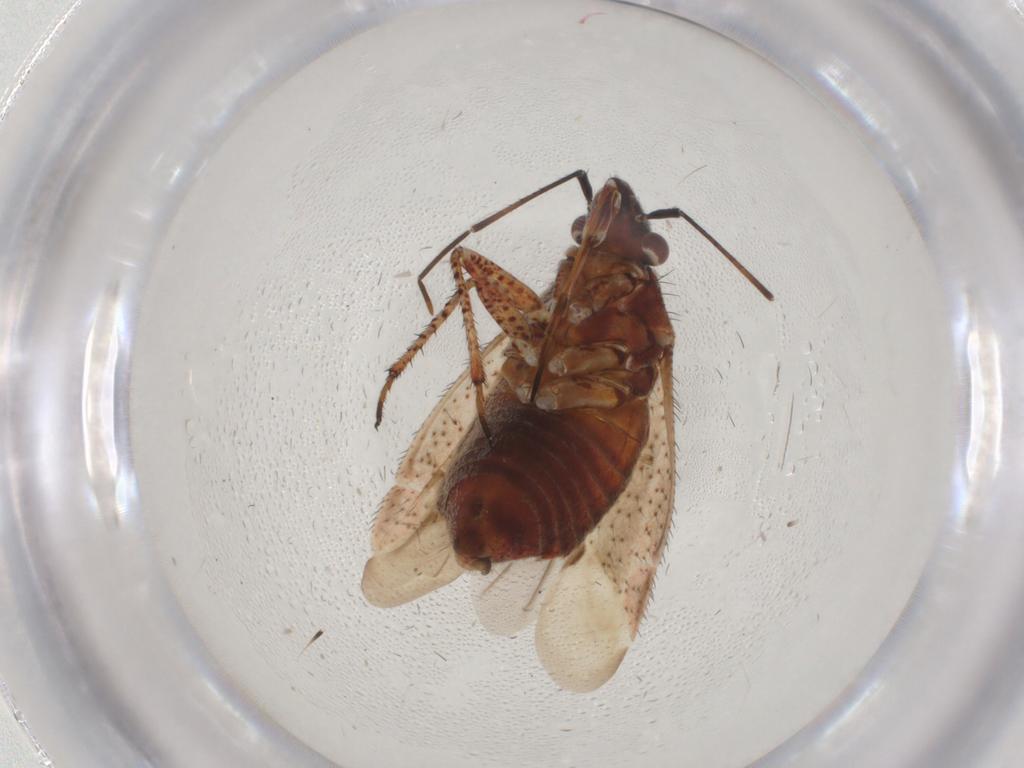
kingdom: Animalia
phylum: Arthropoda
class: Insecta
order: Hemiptera
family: Miridae
